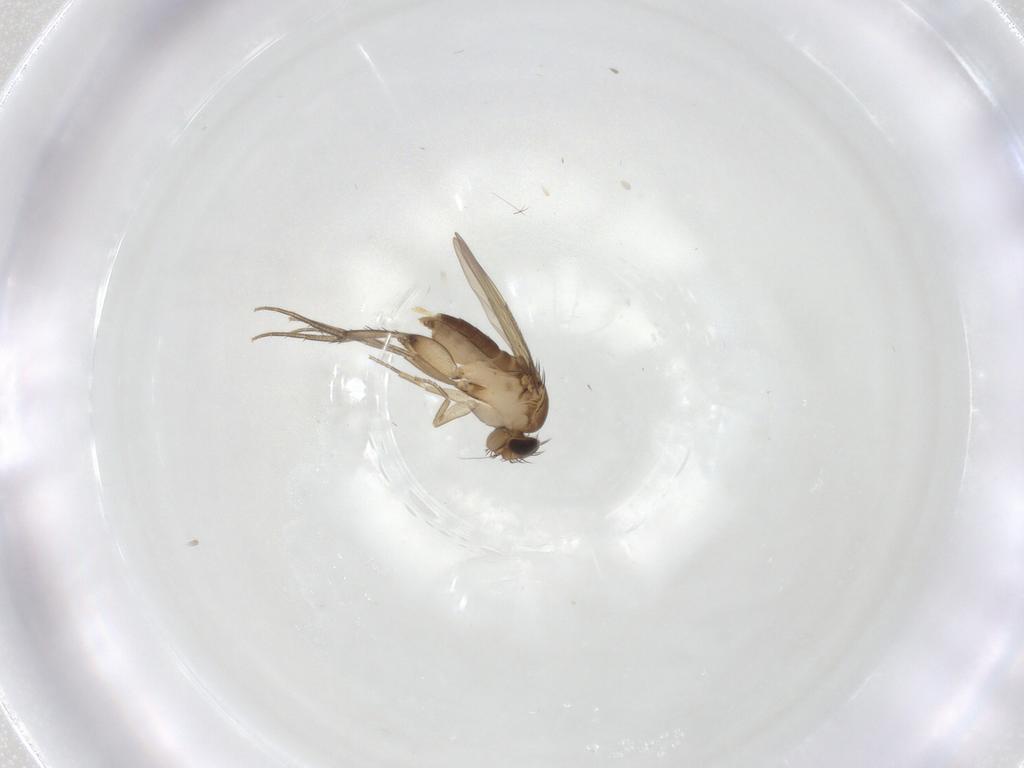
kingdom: Animalia
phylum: Arthropoda
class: Insecta
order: Diptera
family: Phoridae
